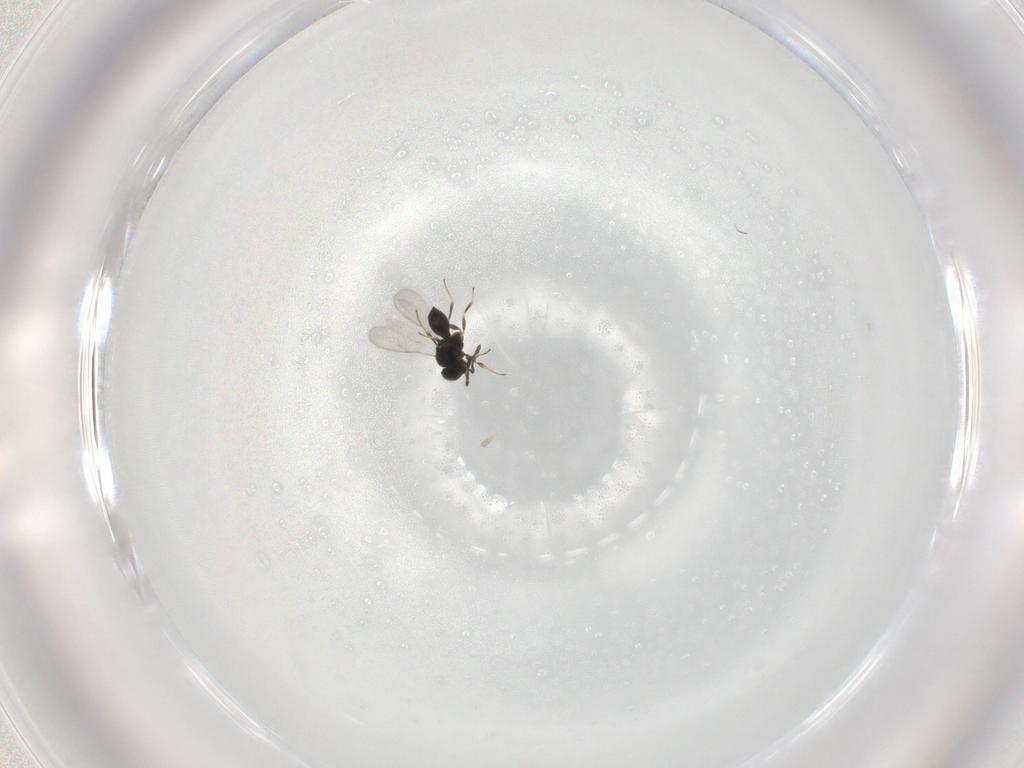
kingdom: Animalia
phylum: Arthropoda
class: Insecta
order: Hymenoptera
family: Scelionidae
